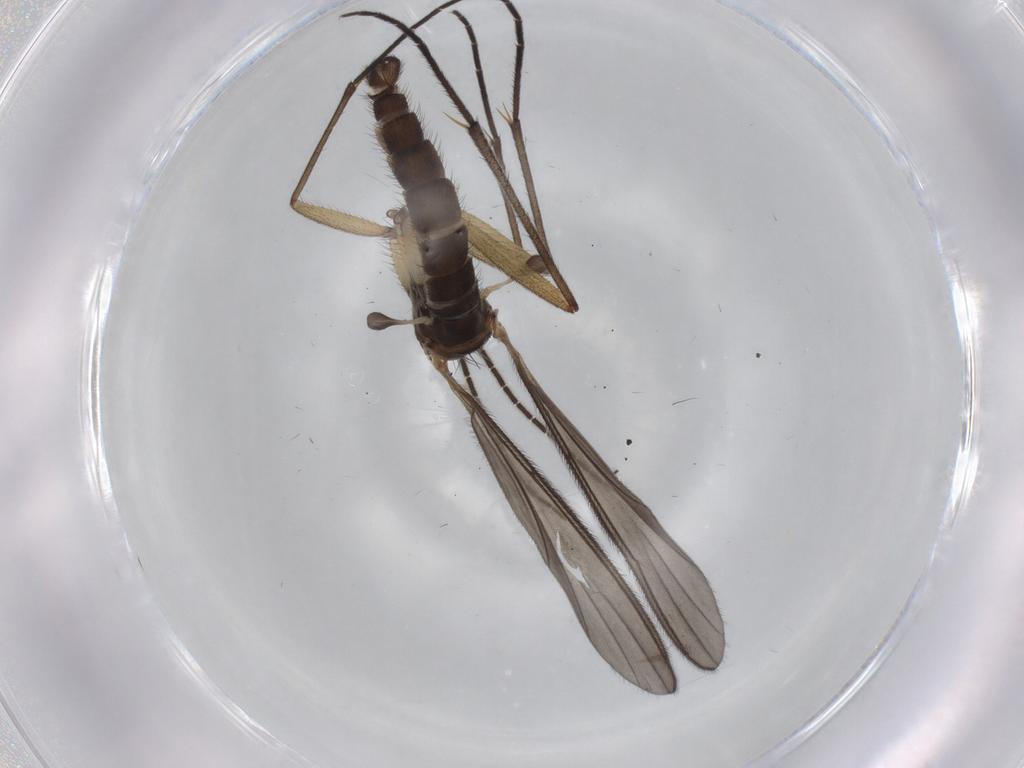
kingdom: Animalia
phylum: Arthropoda
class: Insecta
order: Diptera
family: Sciaridae
